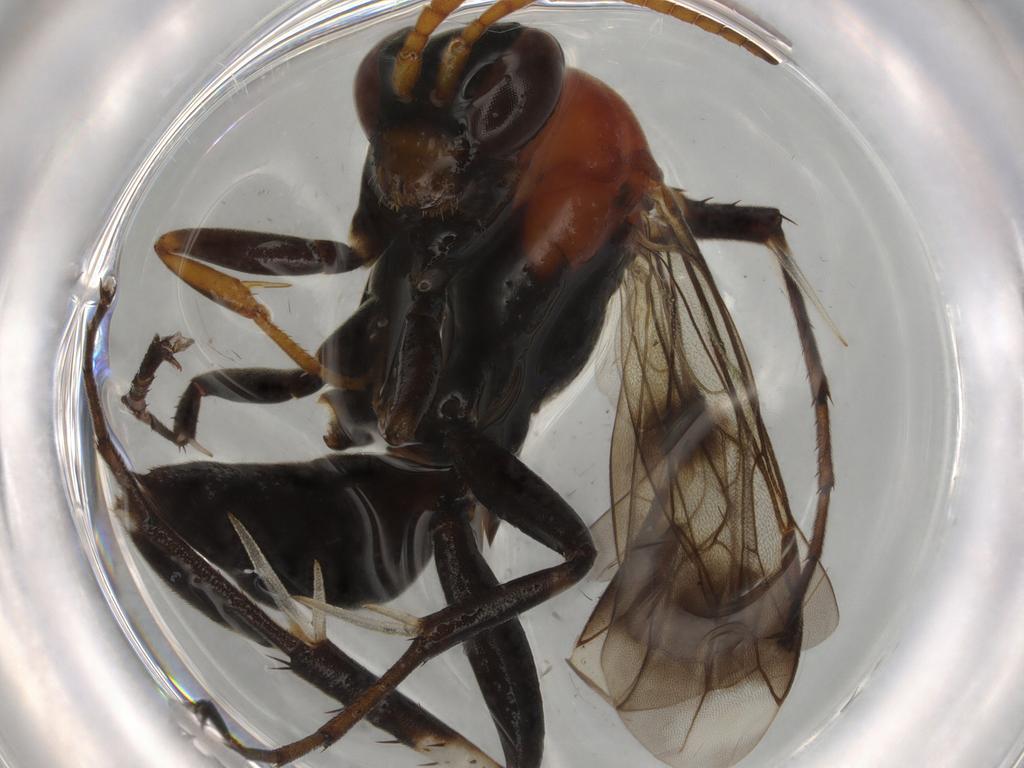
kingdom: Animalia
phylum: Arthropoda
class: Insecta
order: Hymenoptera
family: Pompilidae
